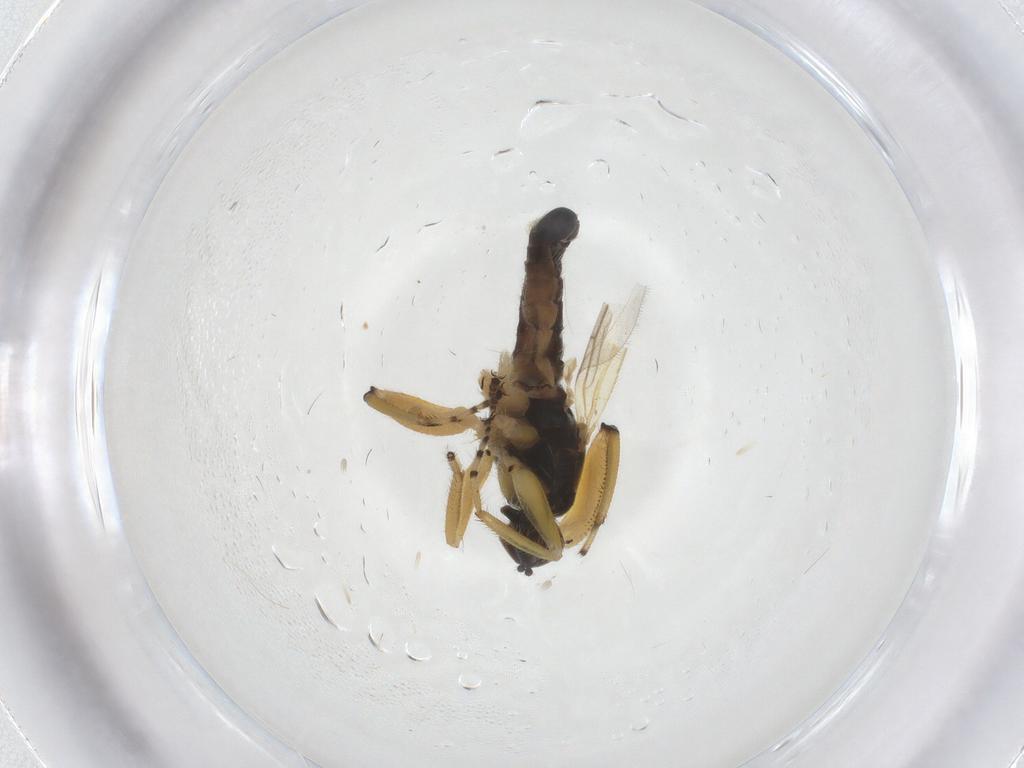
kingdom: Animalia
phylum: Arthropoda
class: Insecta
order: Diptera
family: Hybotidae
